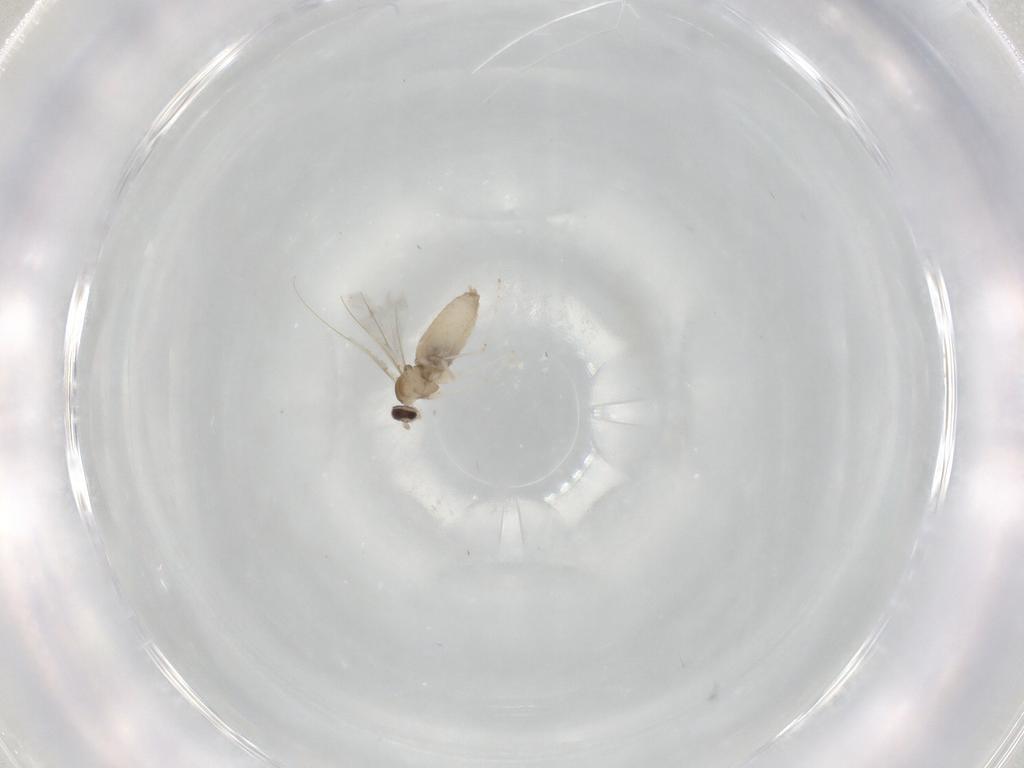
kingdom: Animalia
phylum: Arthropoda
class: Insecta
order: Diptera
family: Cecidomyiidae
